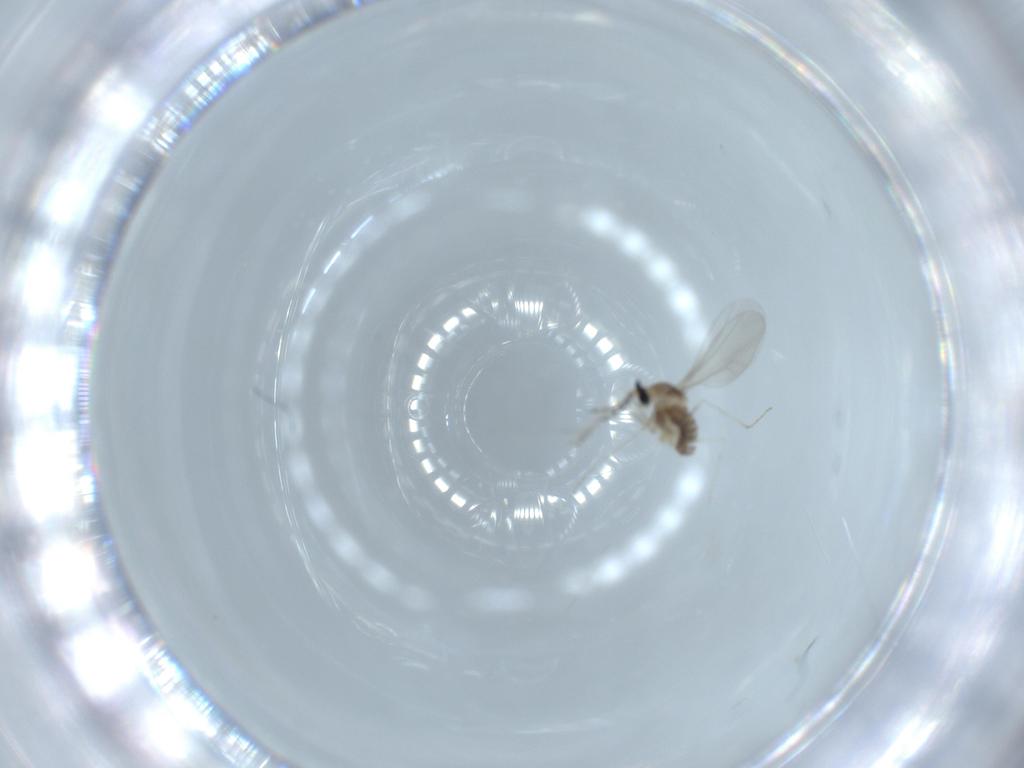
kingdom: Animalia
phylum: Arthropoda
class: Insecta
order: Diptera
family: Cecidomyiidae
